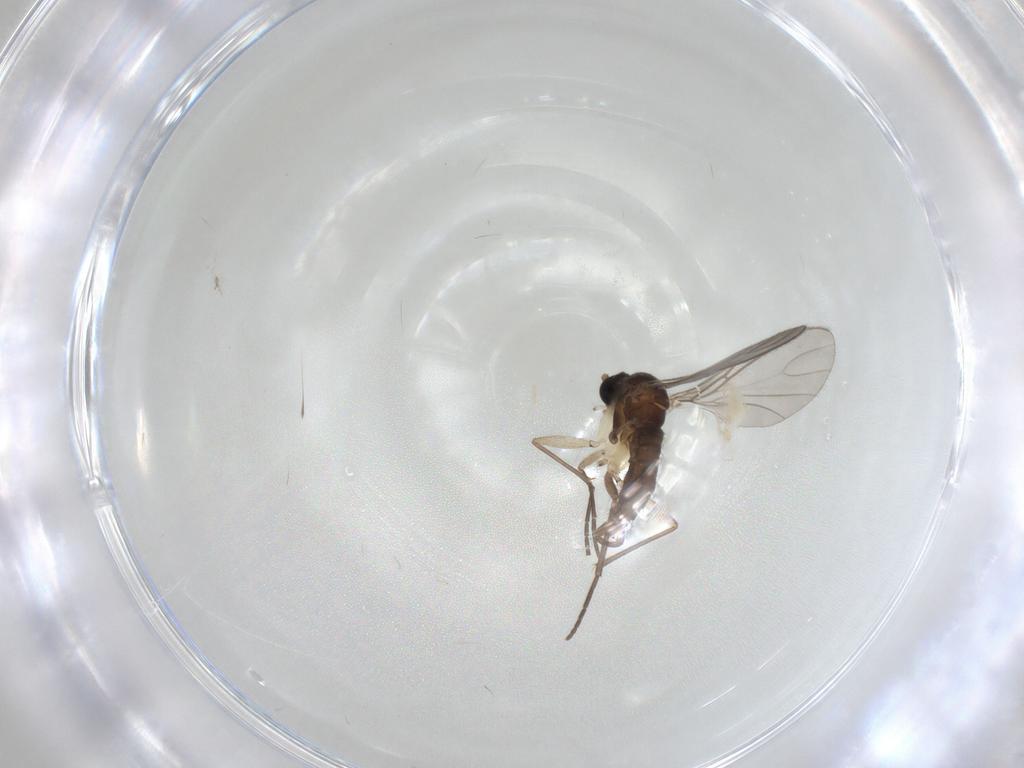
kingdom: Animalia
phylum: Arthropoda
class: Insecta
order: Diptera
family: Sciaridae
